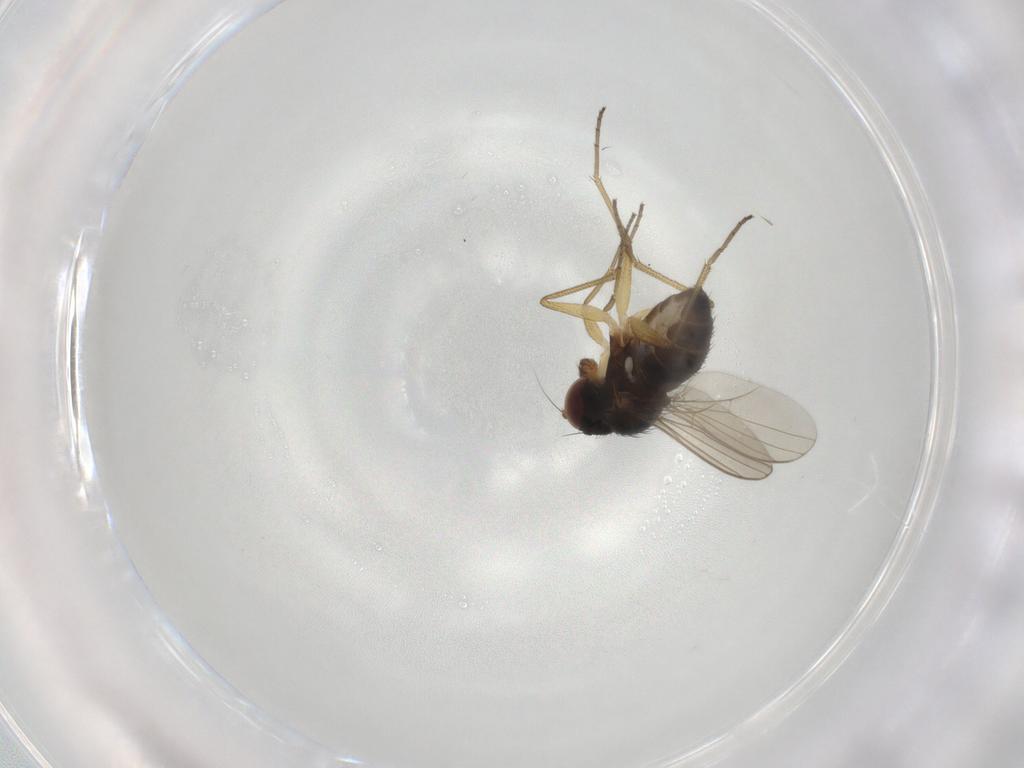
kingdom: Animalia
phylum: Arthropoda
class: Insecta
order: Diptera
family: Dolichopodidae
